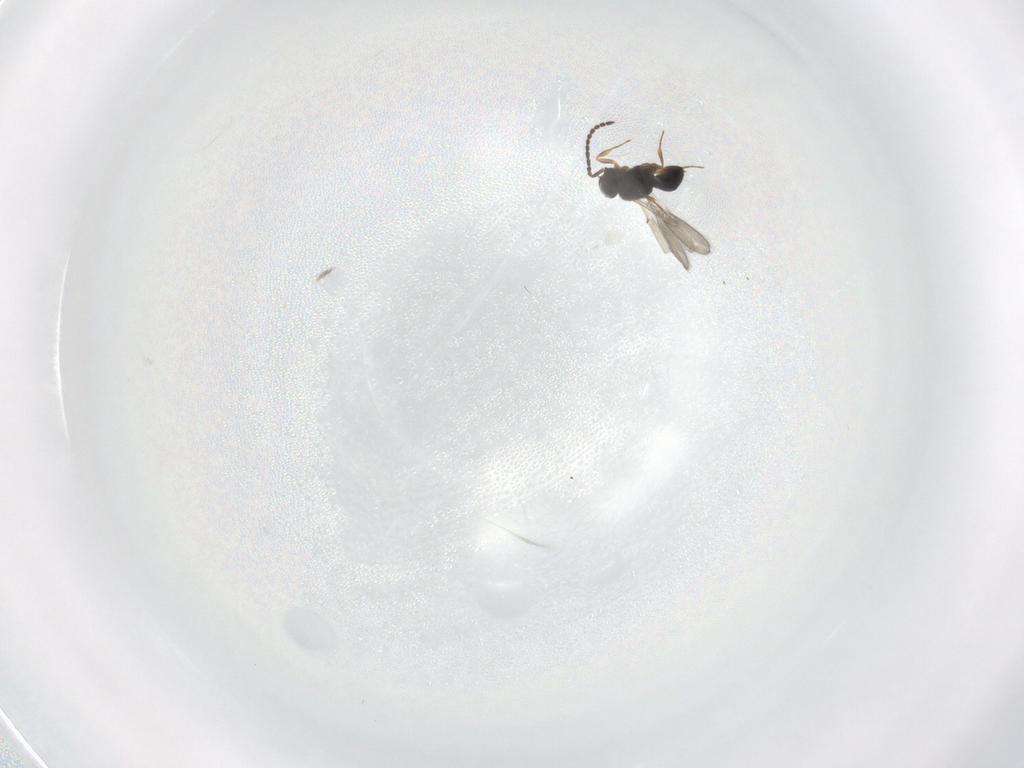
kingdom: Animalia
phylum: Arthropoda
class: Insecta
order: Hymenoptera
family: Scelionidae
